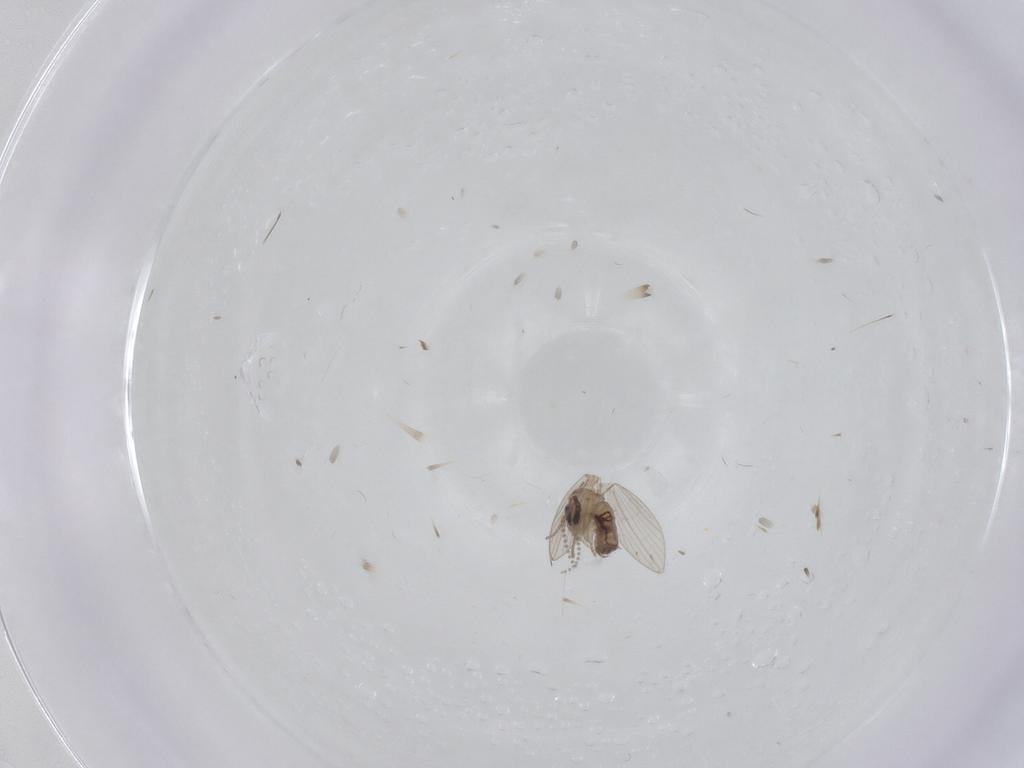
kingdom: Animalia
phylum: Arthropoda
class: Insecta
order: Diptera
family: Psychodidae
